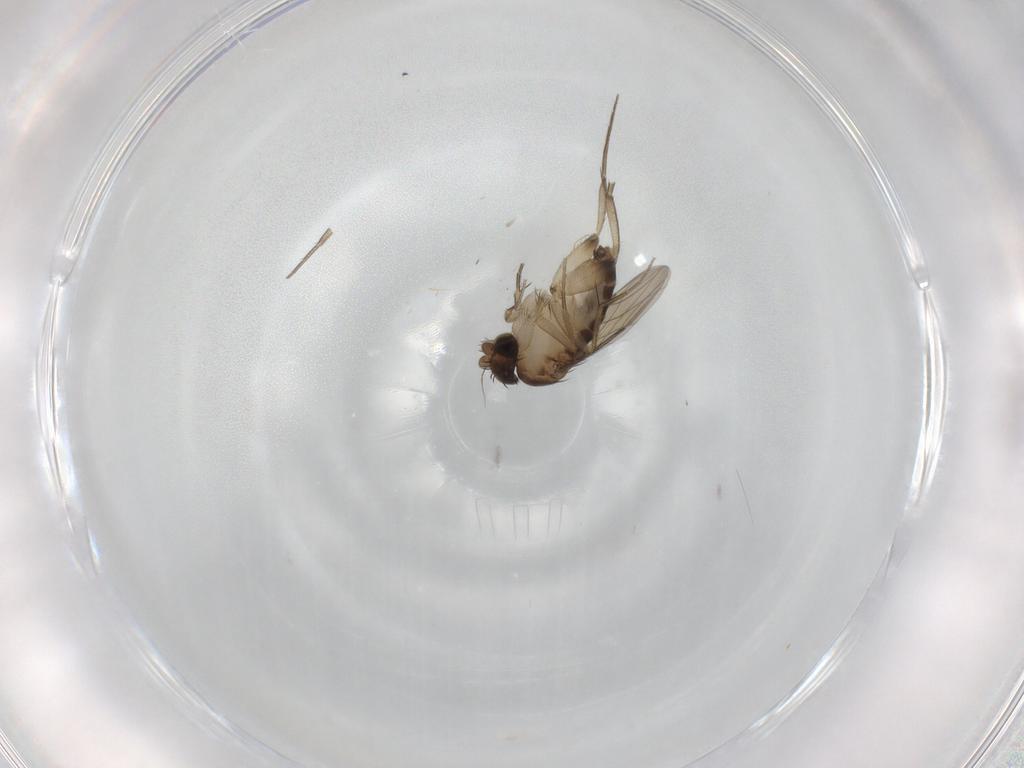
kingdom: Animalia
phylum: Arthropoda
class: Insecta
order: Diptera
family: Phoridae
